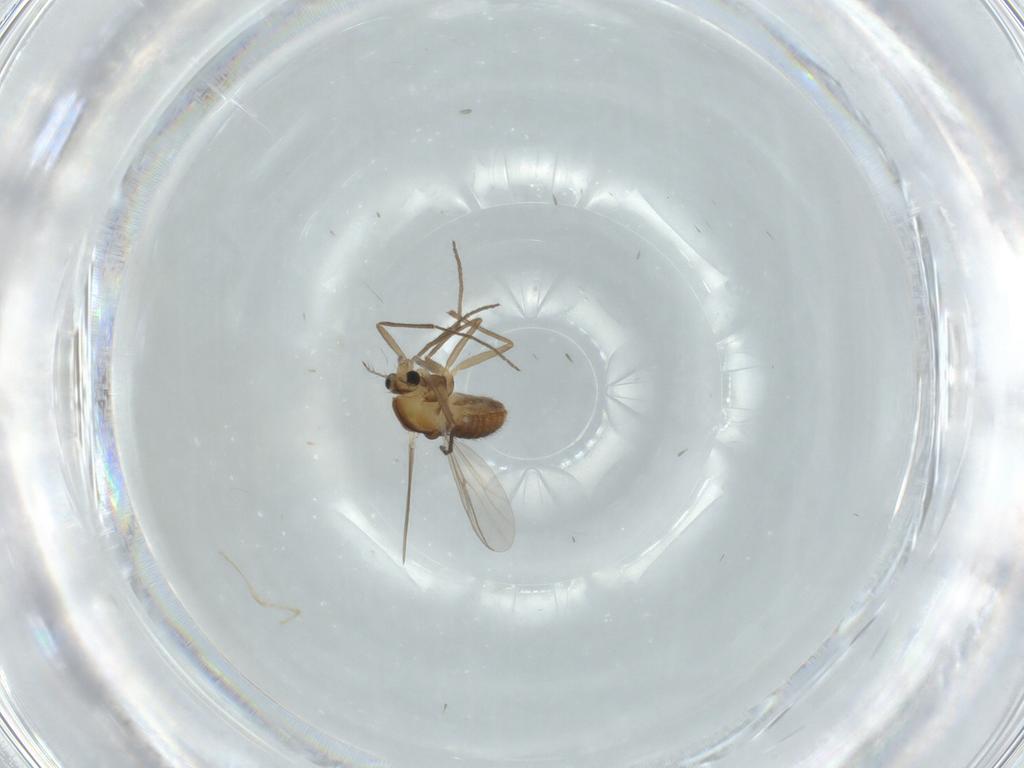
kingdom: Animalia
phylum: Arthropoda
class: Insecta
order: Diptera
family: Chironomidae
